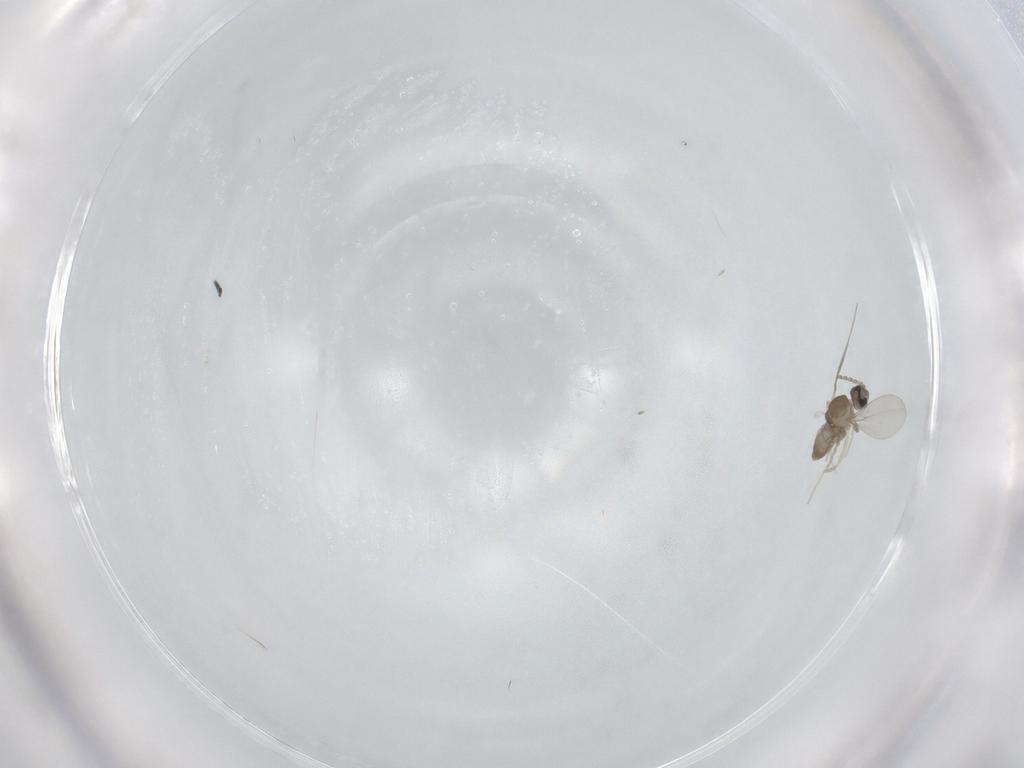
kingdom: Animalia
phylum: Arthropoda
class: Insecta
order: Diptera
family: Psychodidae
